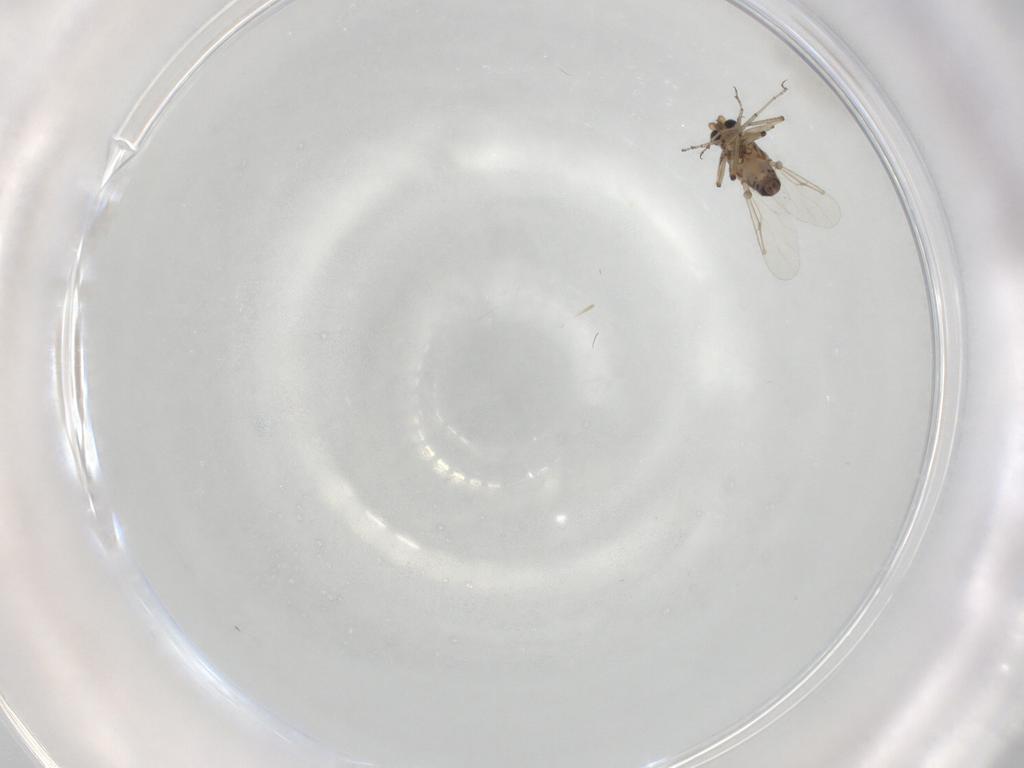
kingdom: Animalia
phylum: Arthropoda
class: Insecta
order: Diptera
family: Ceratopogonidae
